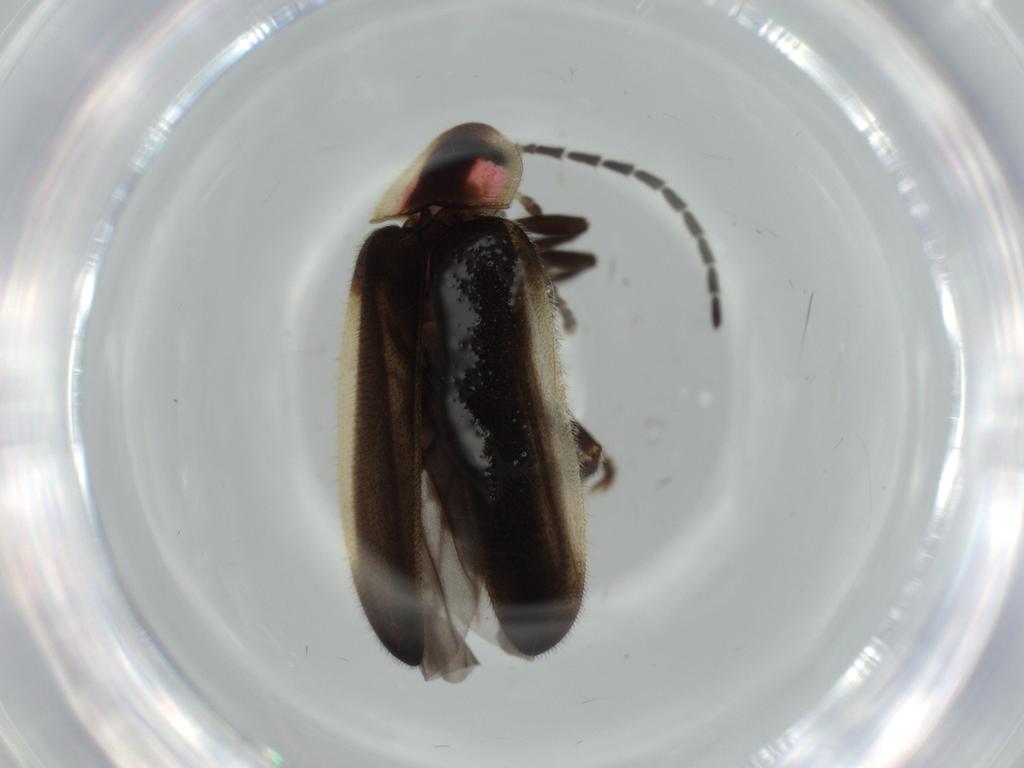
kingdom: Animalia
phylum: Arthropoda
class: Insecta
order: Coleoptera
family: Lampyridae
